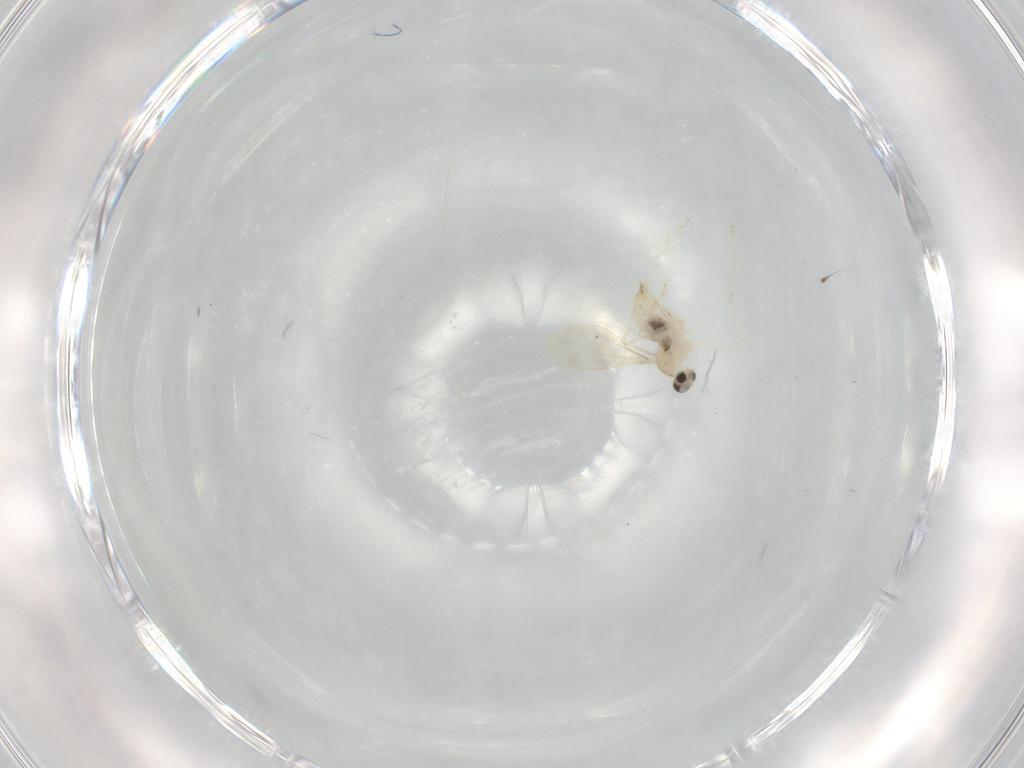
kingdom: Animalia
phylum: Arthropoda
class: Insecta
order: Diptera
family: Cecidomyiidae
